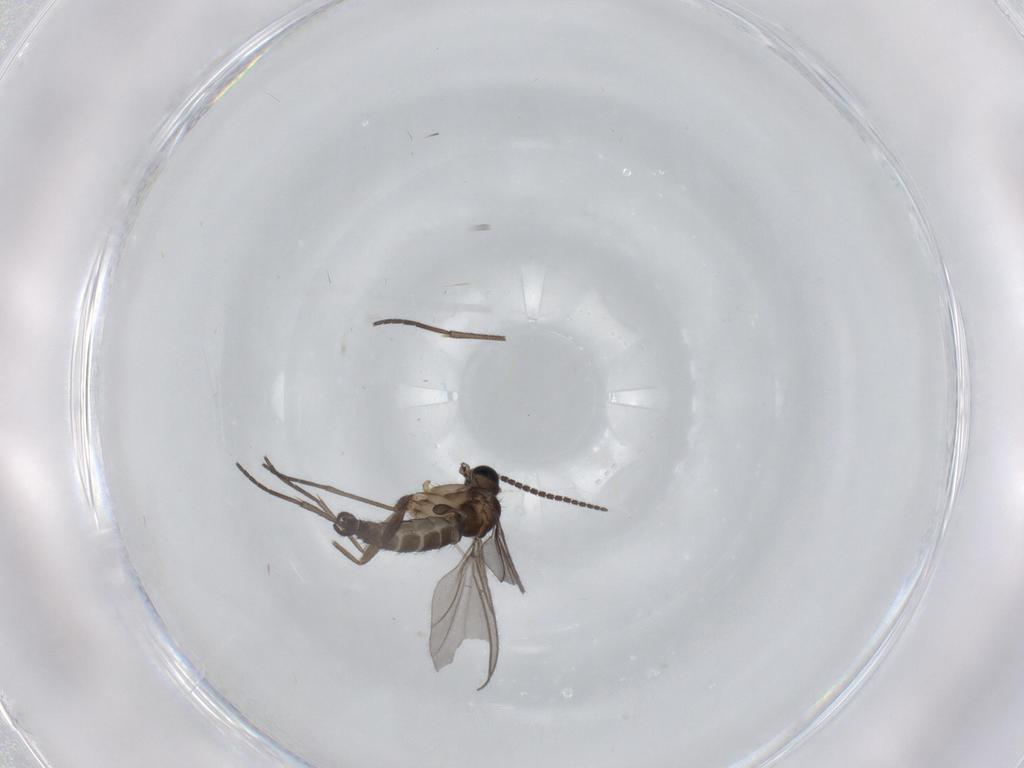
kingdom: Animalia
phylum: Arthropoda
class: Insecta
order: Diptera
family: Sciaridae
